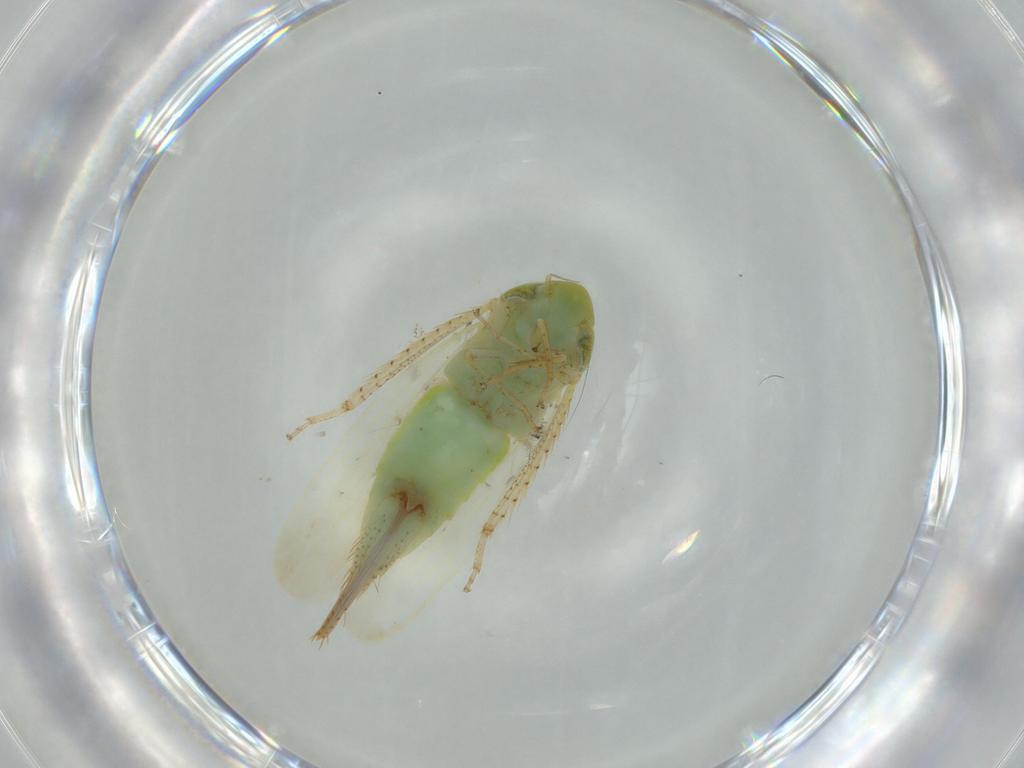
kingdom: Animalia
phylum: Arthropoda
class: Insecta
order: Hemiptera
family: Cicadellidae
